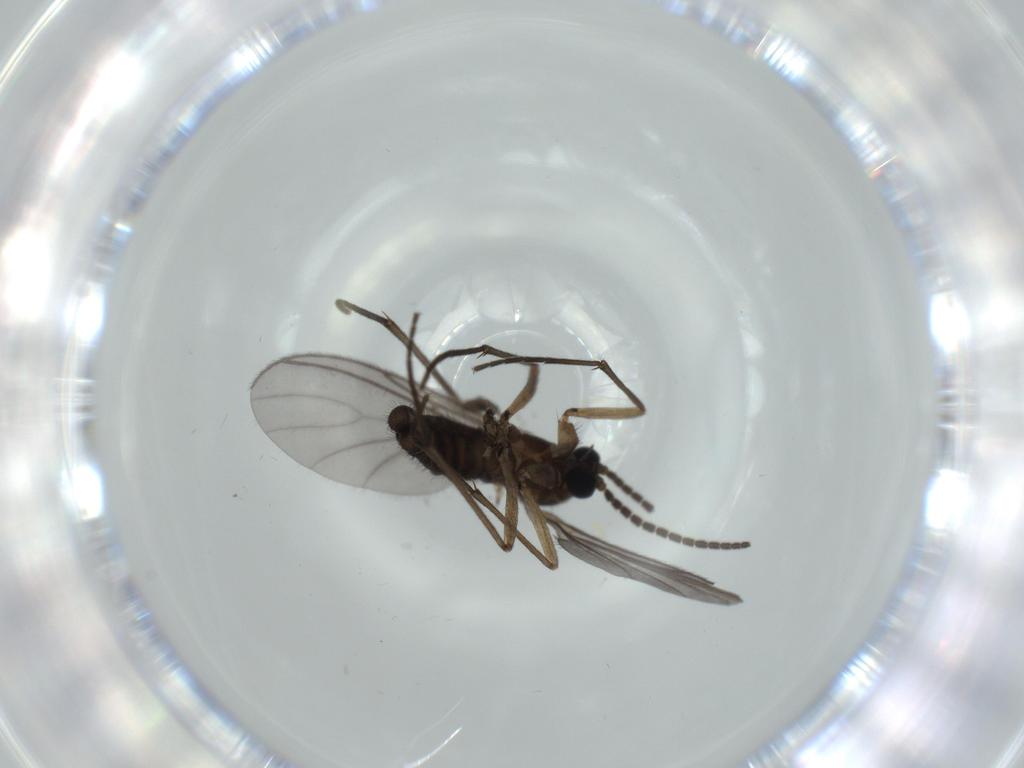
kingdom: Animalia
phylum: Arthropoda
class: Insecta
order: Diptera
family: Sciaridae
